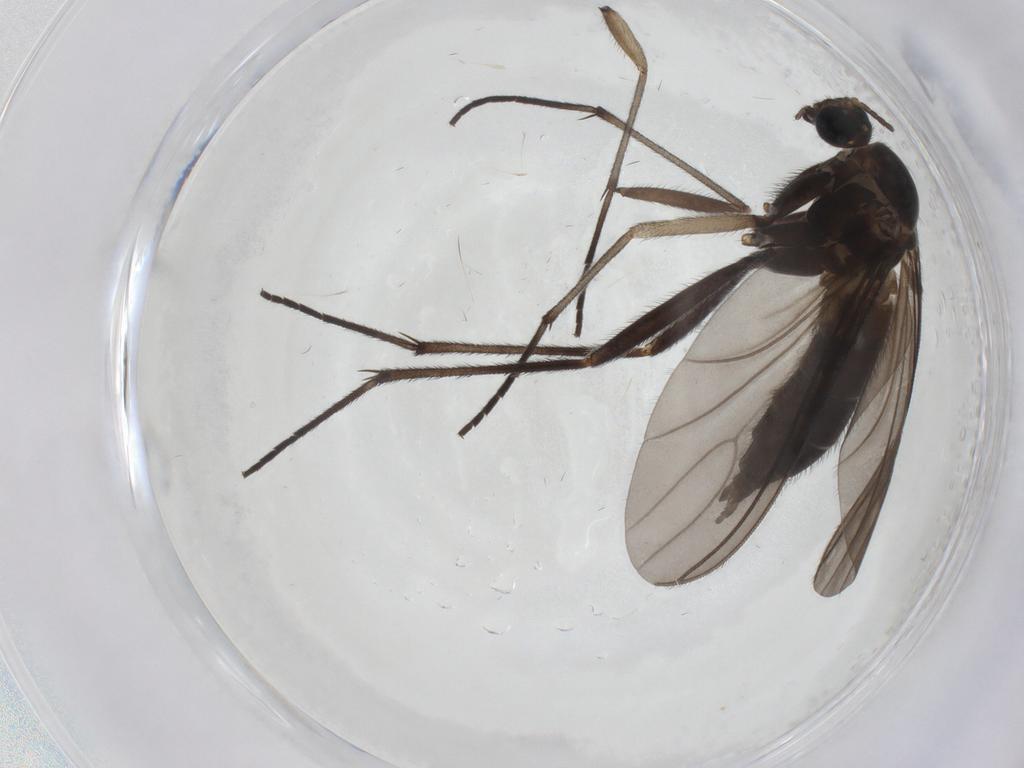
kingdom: Animalia
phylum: Arthropoda
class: Insecta
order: Diptera
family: Sciaridae
